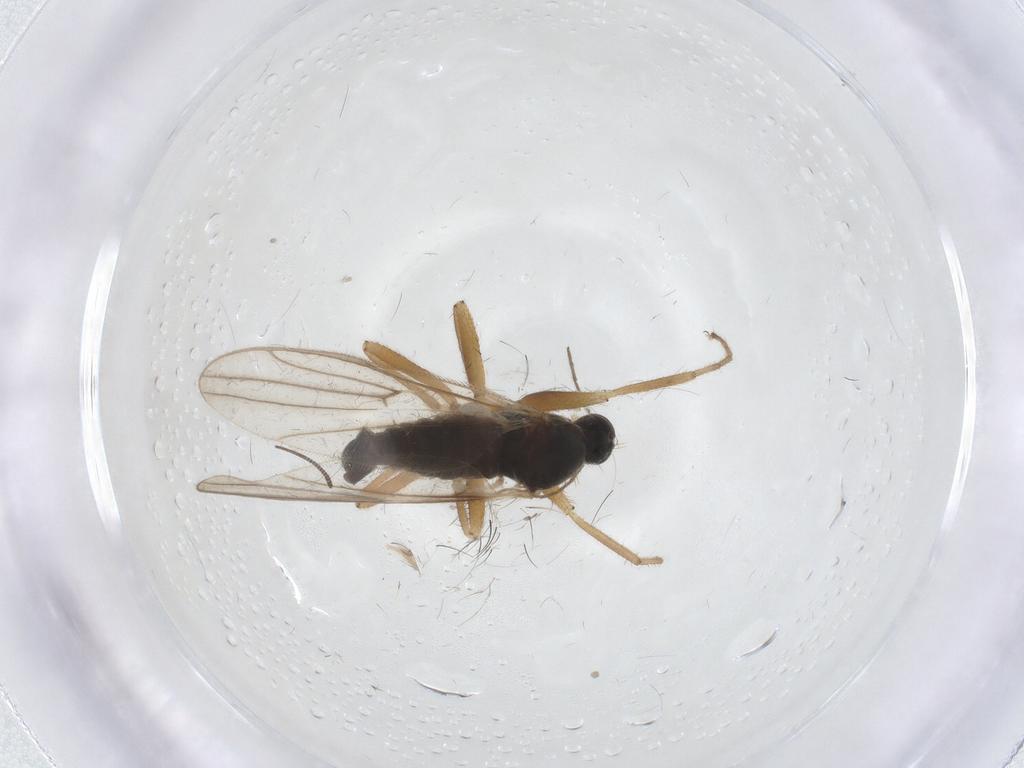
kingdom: Animalia
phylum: Arthropoda
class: Insecta
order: Diptera
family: Hybotidae
